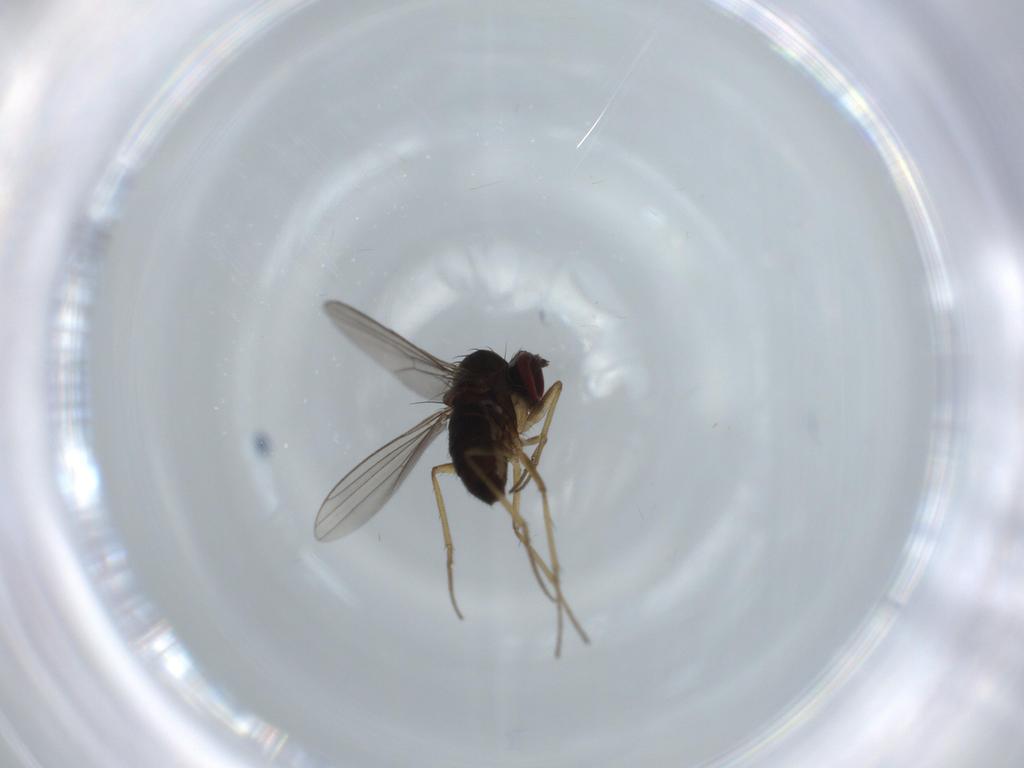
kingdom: Animalia
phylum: Arthropoda
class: Insecta
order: Diptera
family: Dolichopodidae
